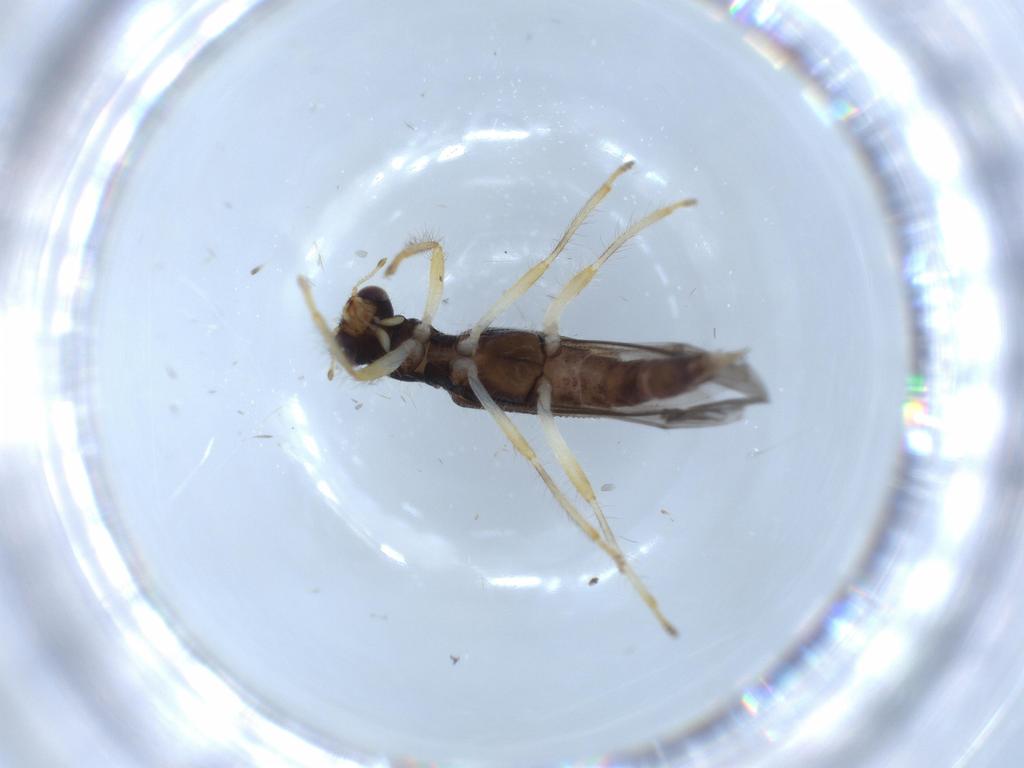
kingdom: Animalia
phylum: Arthropoda
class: Insecta
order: Coleoptera
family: Cleridae
